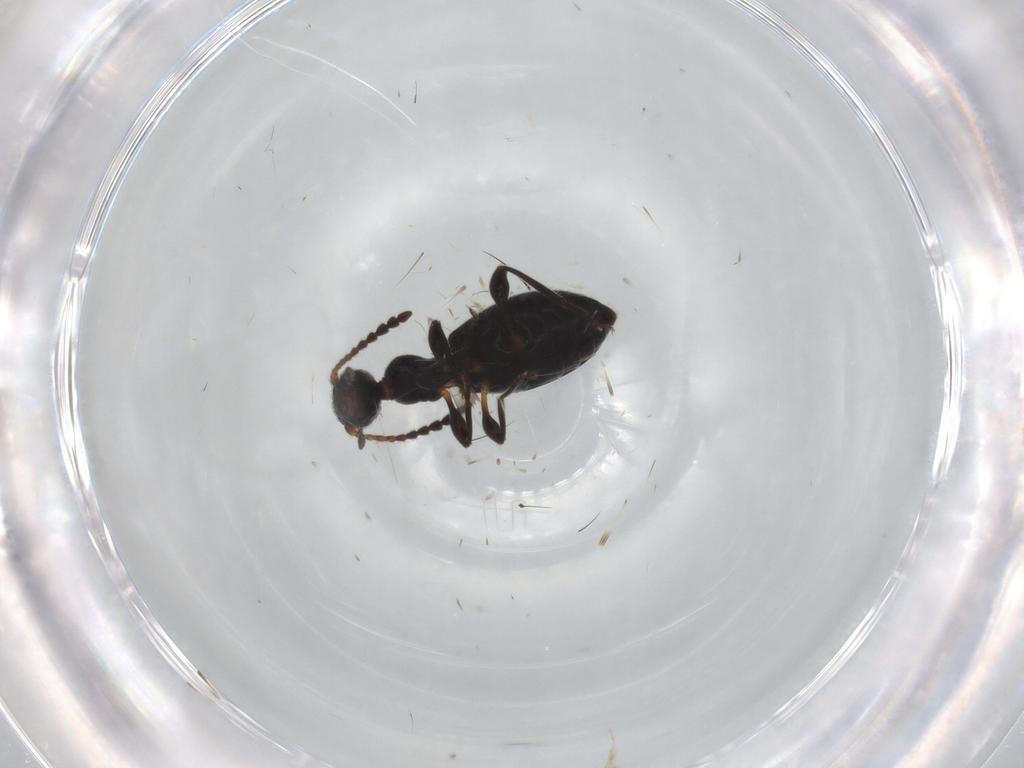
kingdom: Animalia
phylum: Arthropoda
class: Insecta
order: Coleoptera
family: Anthicidae
